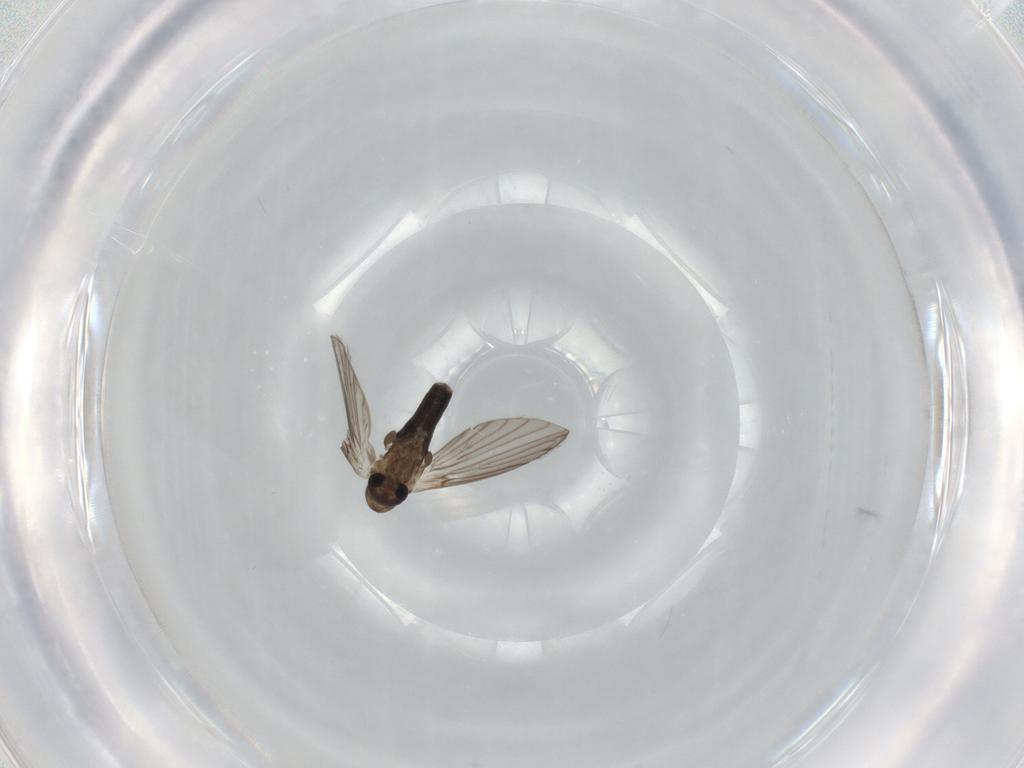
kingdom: Animalia
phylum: Arthropoda
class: Insecta
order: Diptera
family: Psychodidae
